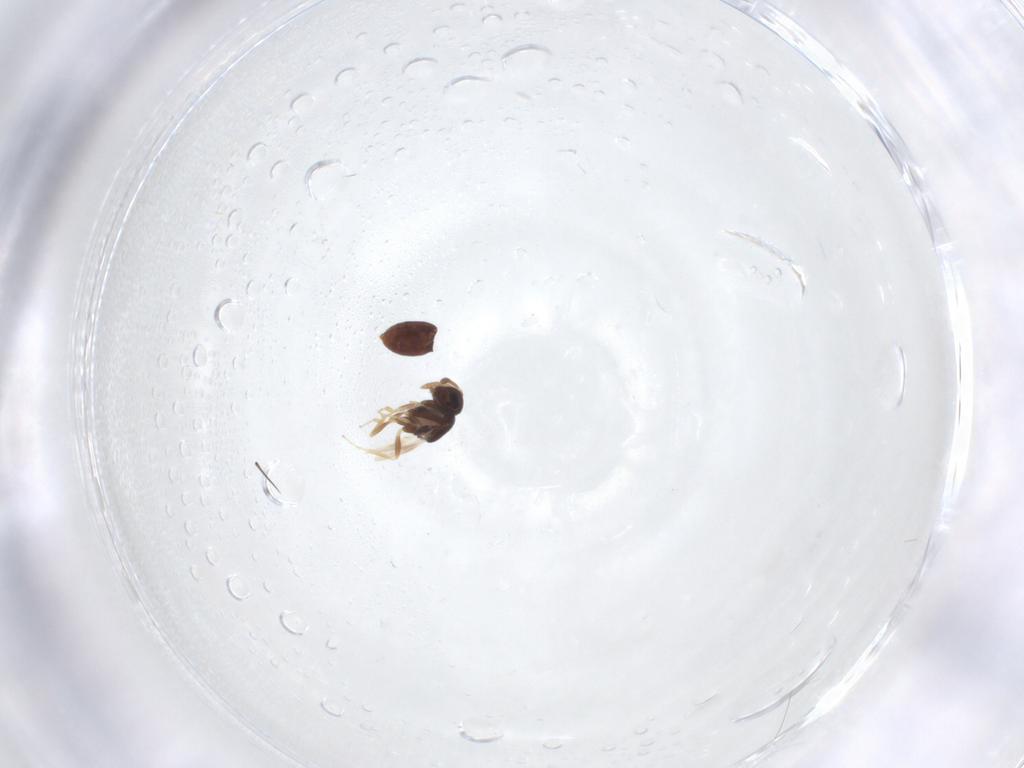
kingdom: Animalia
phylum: Arthropoda
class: Insecta
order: Hymenoptera
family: Scelionidae
